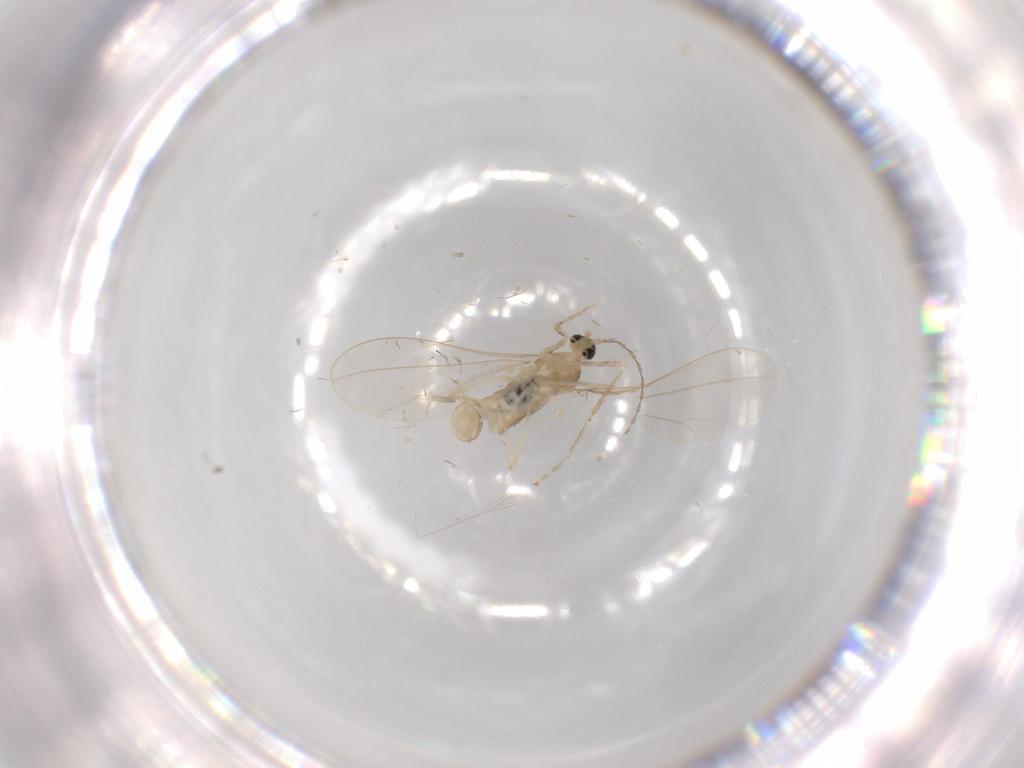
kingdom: Animalia
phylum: Arthropoda
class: Insecta
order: Diptera
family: Cecidomyiidae
